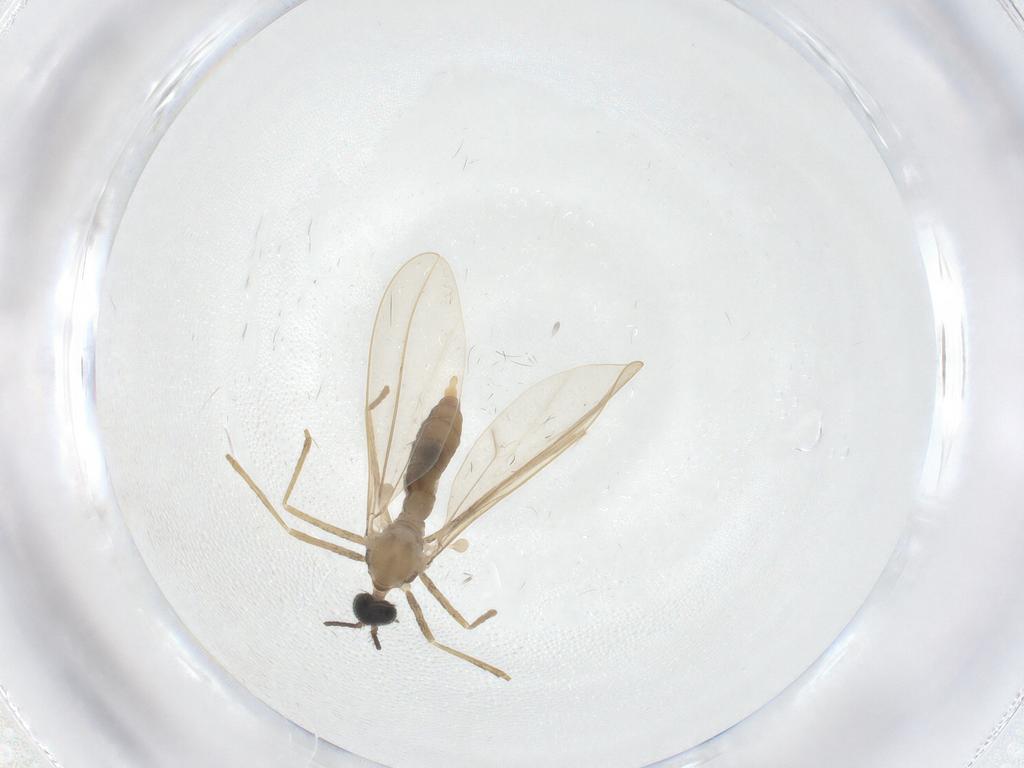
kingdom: Animalia
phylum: Arthropoda
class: Insecta
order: Diptera
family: Cecidomyiidae
